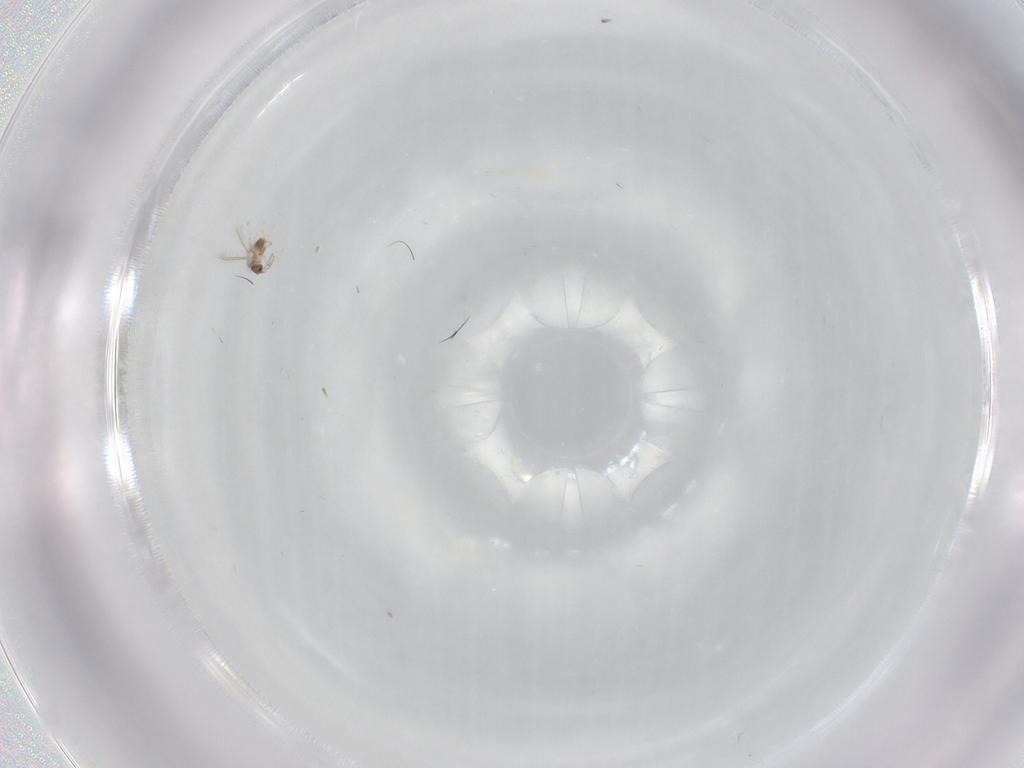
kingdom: Animalia
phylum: Arthropoda
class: Insecta
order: Hymenoptera
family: Mymaridae
